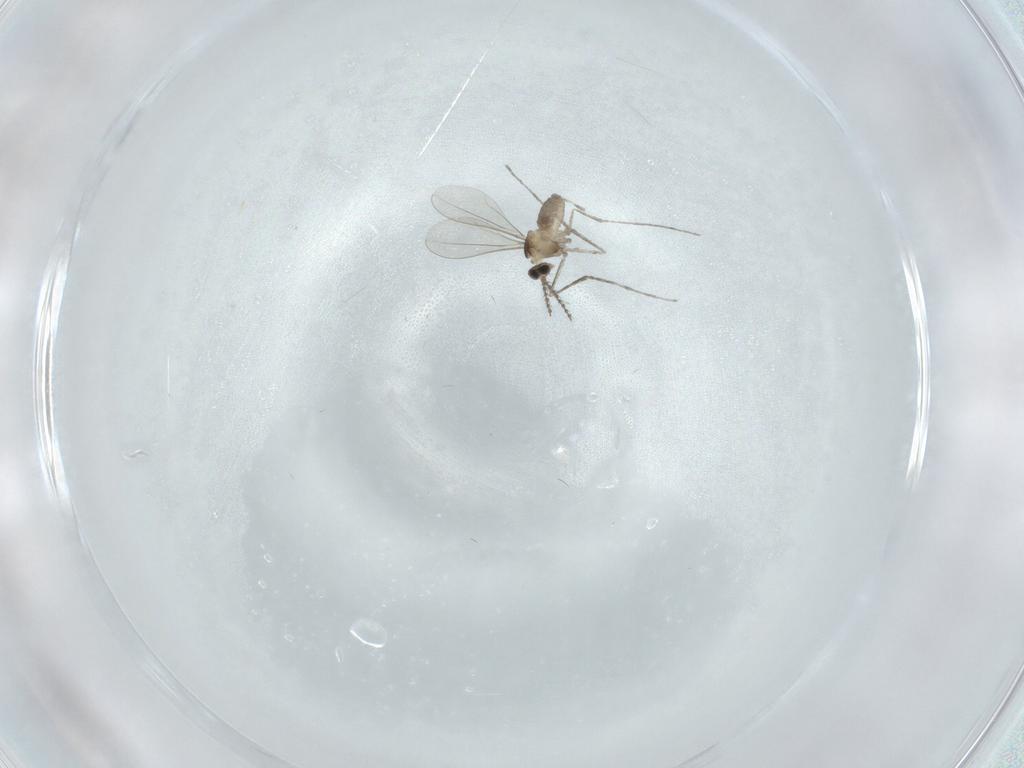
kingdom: Animalia
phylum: Arthropoda
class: Insecta
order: Diptera
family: Cecidomyiidae
